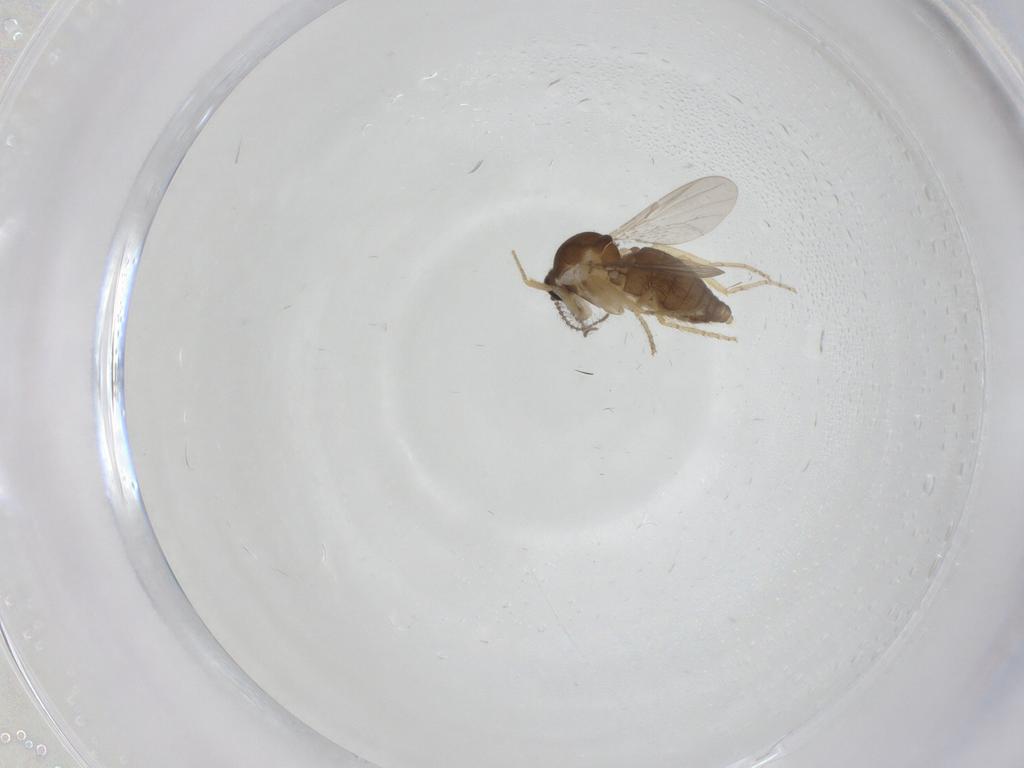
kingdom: Animalia
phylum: Arthropoda
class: Insecta
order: Diptera
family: Ceratopogonidae
